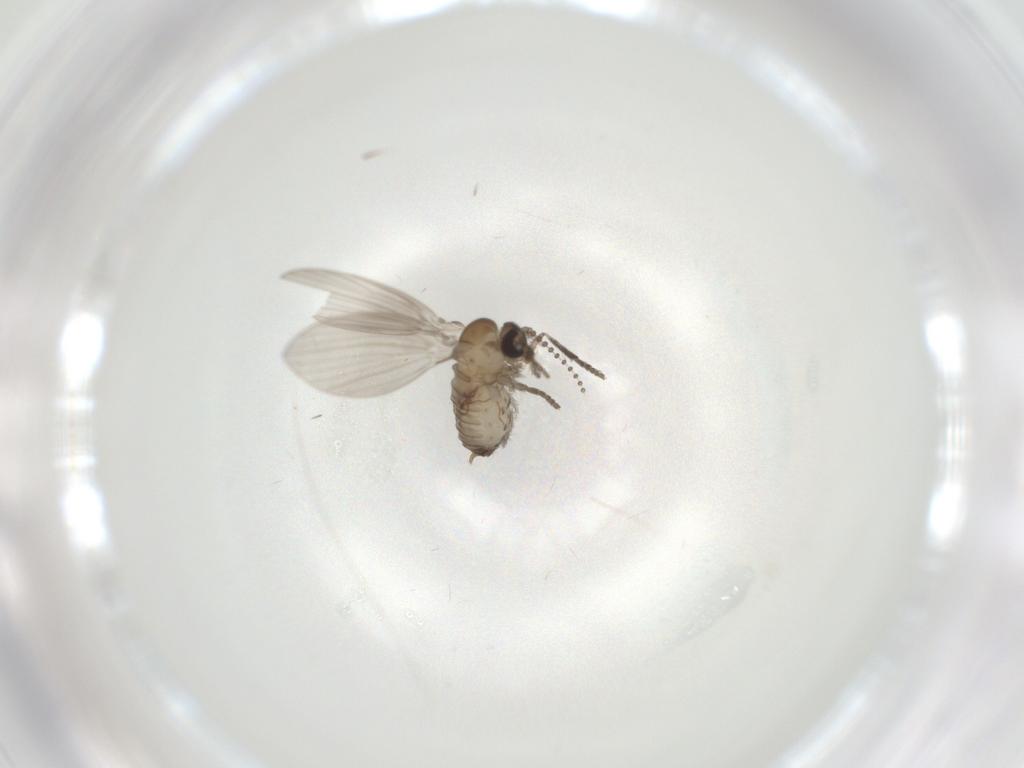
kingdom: Animalia
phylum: Arthropoda
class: Insecta
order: Diptera
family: Psychodidae
